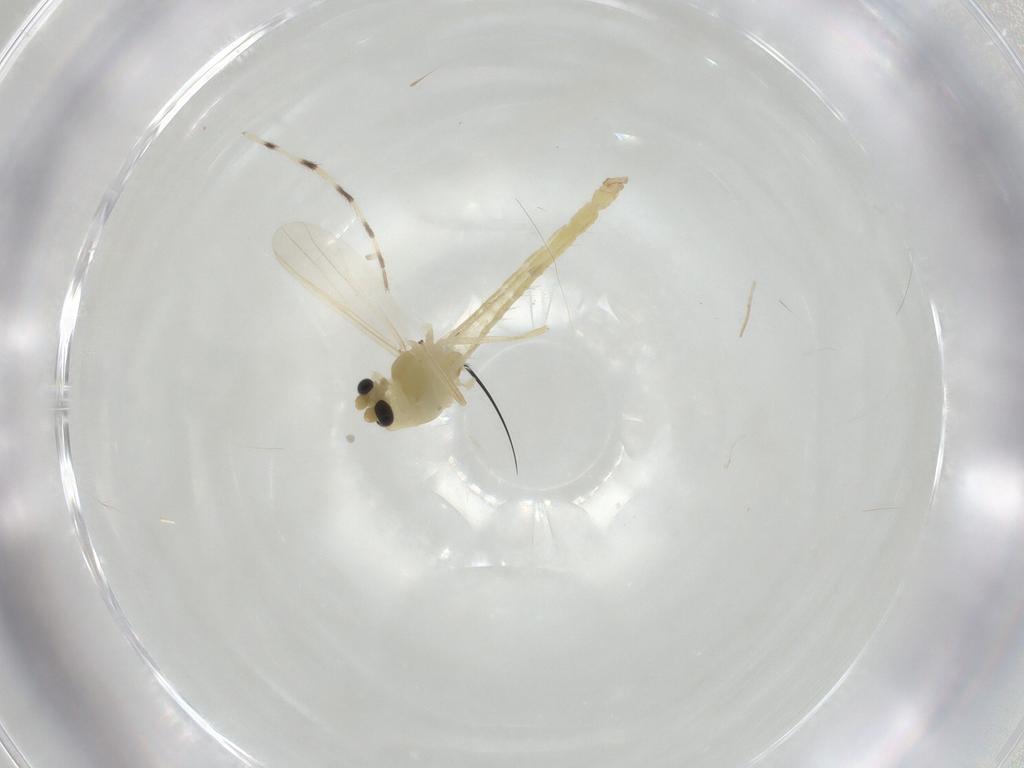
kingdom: Animalia
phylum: Arthropoda
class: Insecta
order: Diptera
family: Chironomidae
